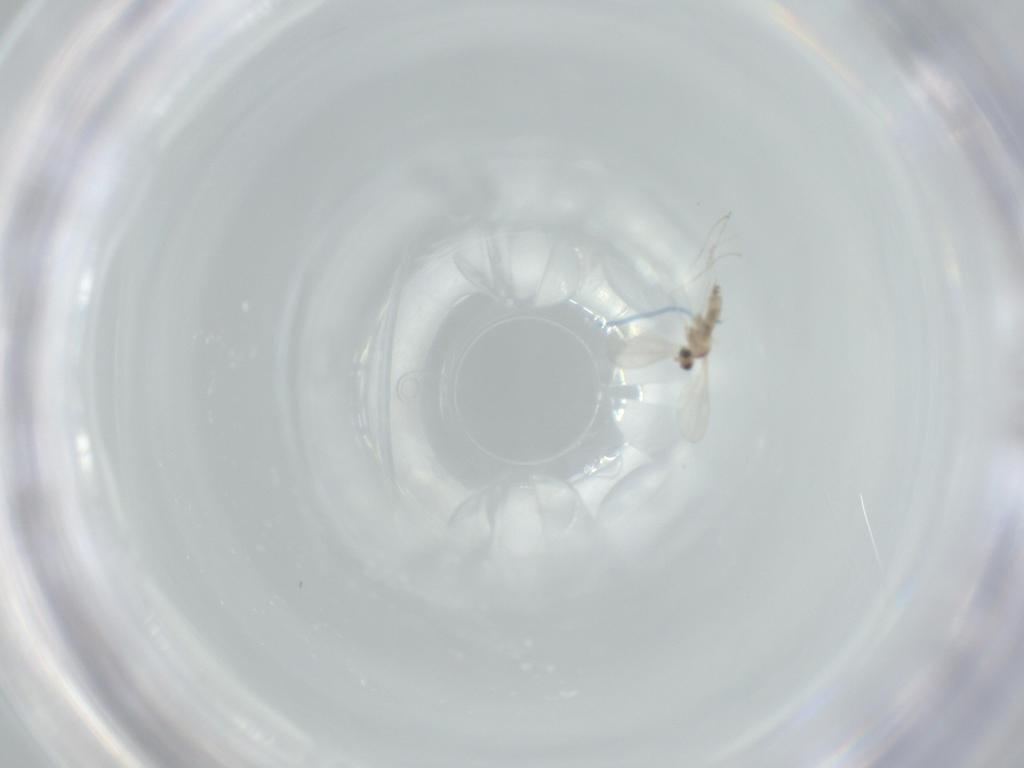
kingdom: Animalia
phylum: Arthropoda
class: Insecta
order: Diptera
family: Cecidomyiidae
